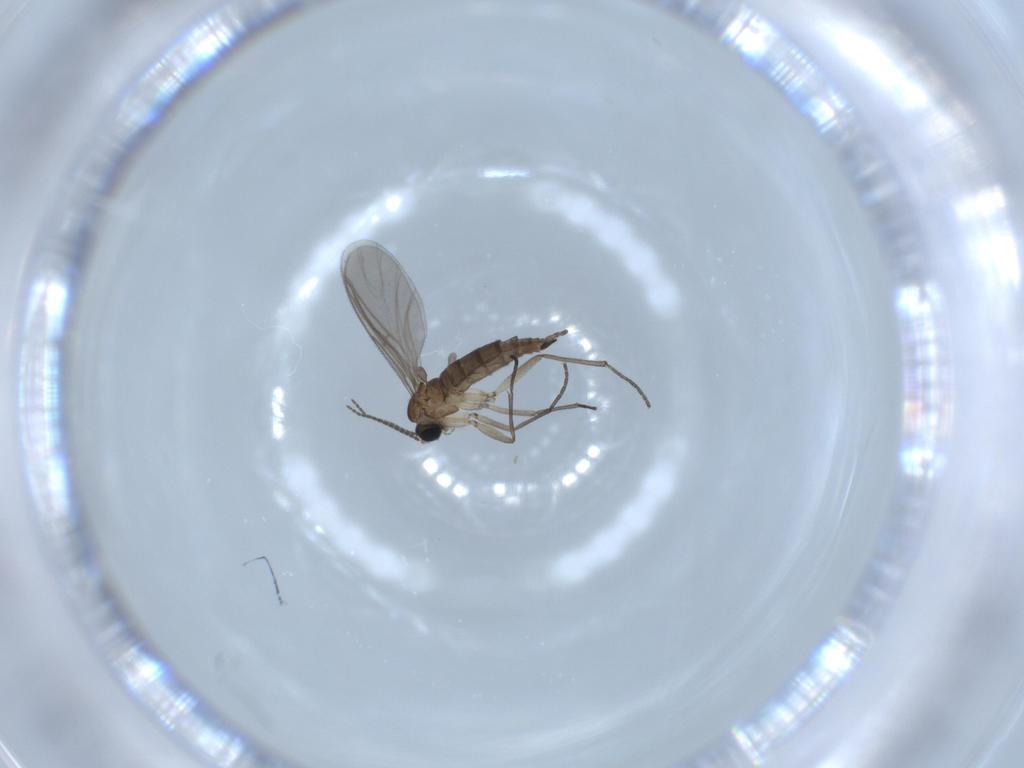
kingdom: Animalia
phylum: Arthropoda
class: Insecta
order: Diptera
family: Sciaridae
